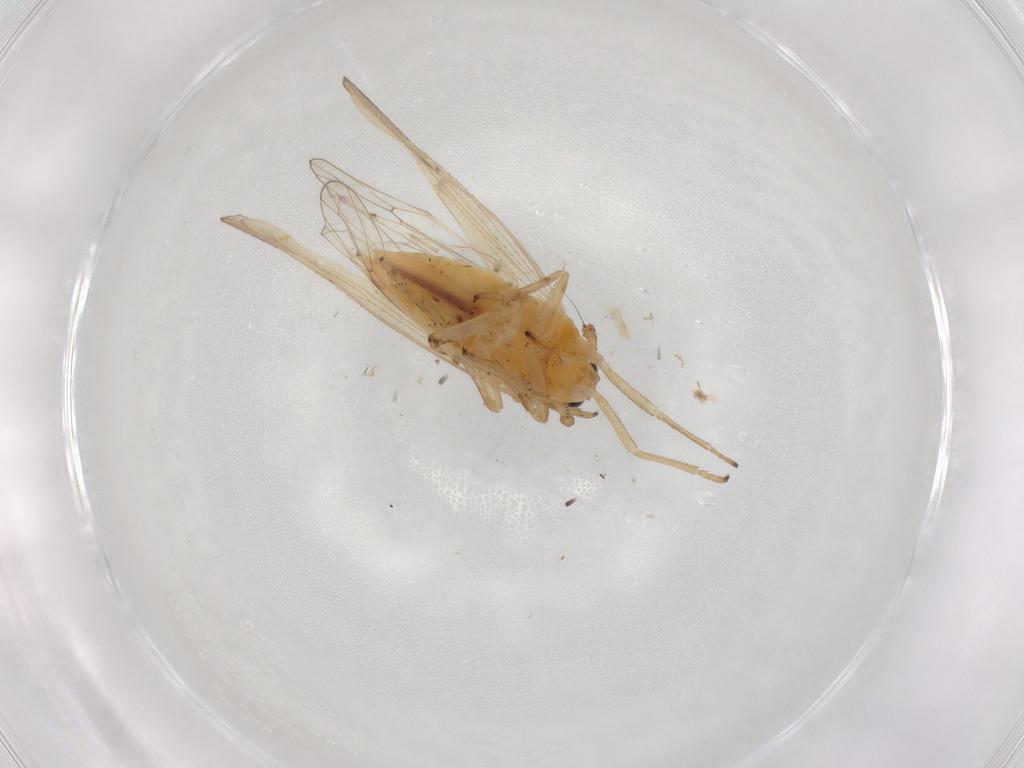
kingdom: Animalia
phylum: Arthropoda
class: Insecta
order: Hemiptera
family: Delphacidae
